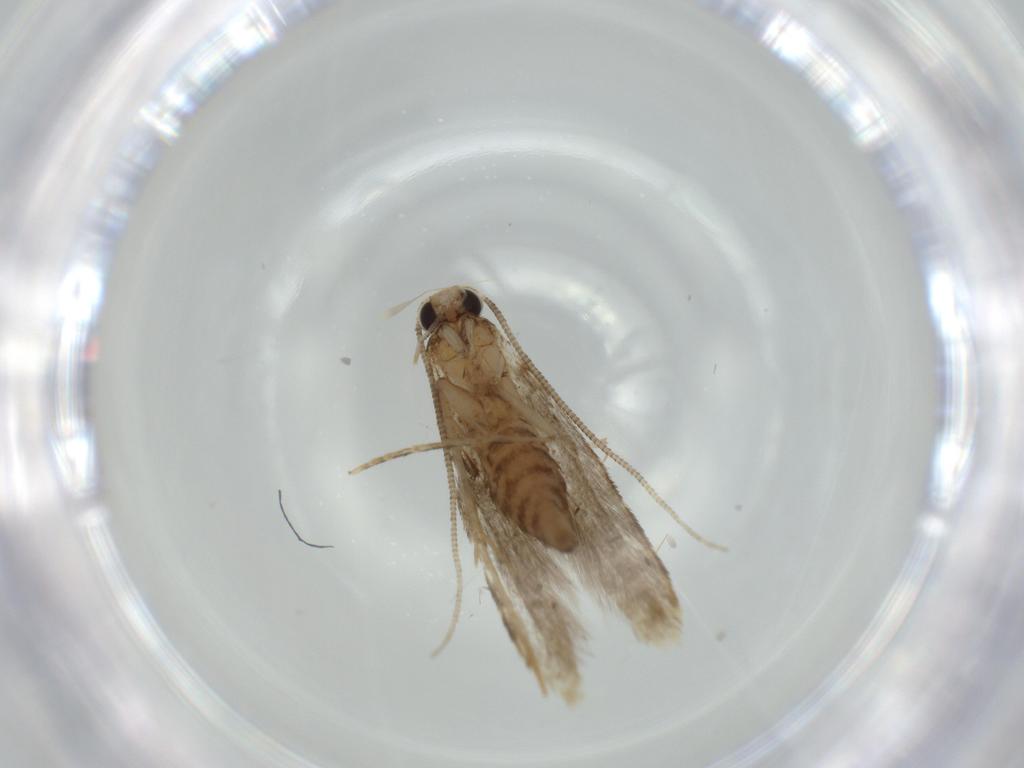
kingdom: Animalia
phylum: Arthropoda
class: Insecta
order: Lepidoptera
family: Tineidae
